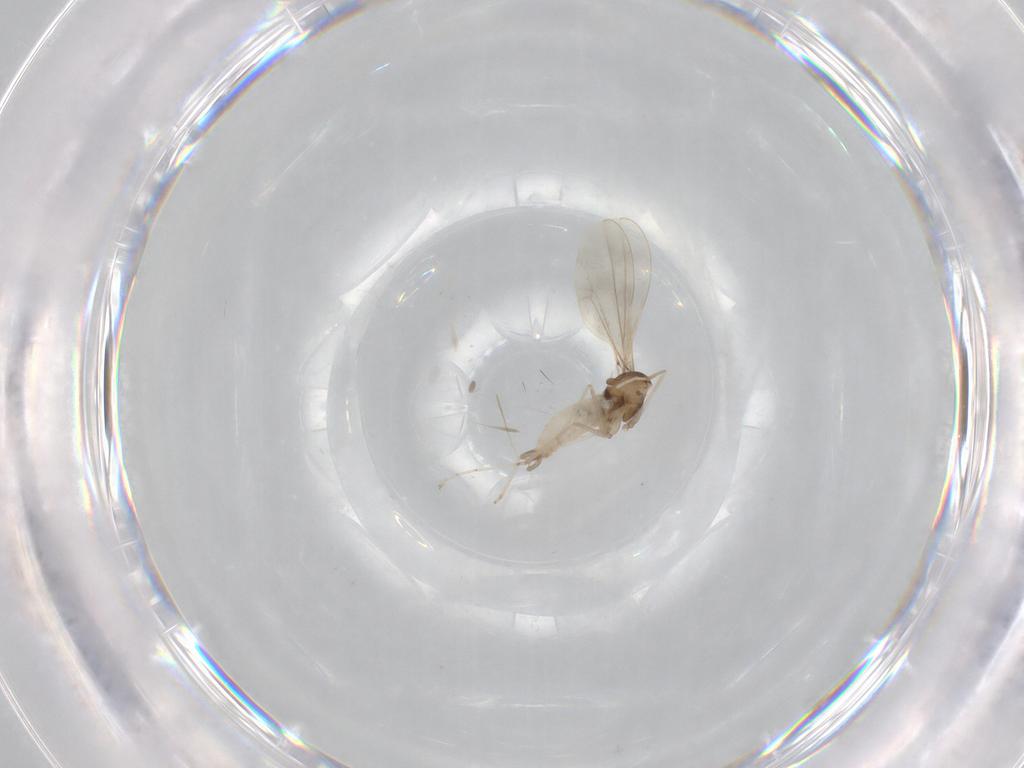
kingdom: Animalia
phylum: Arthropoda
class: Insecta
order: Diptera
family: Cecidomyiidae
